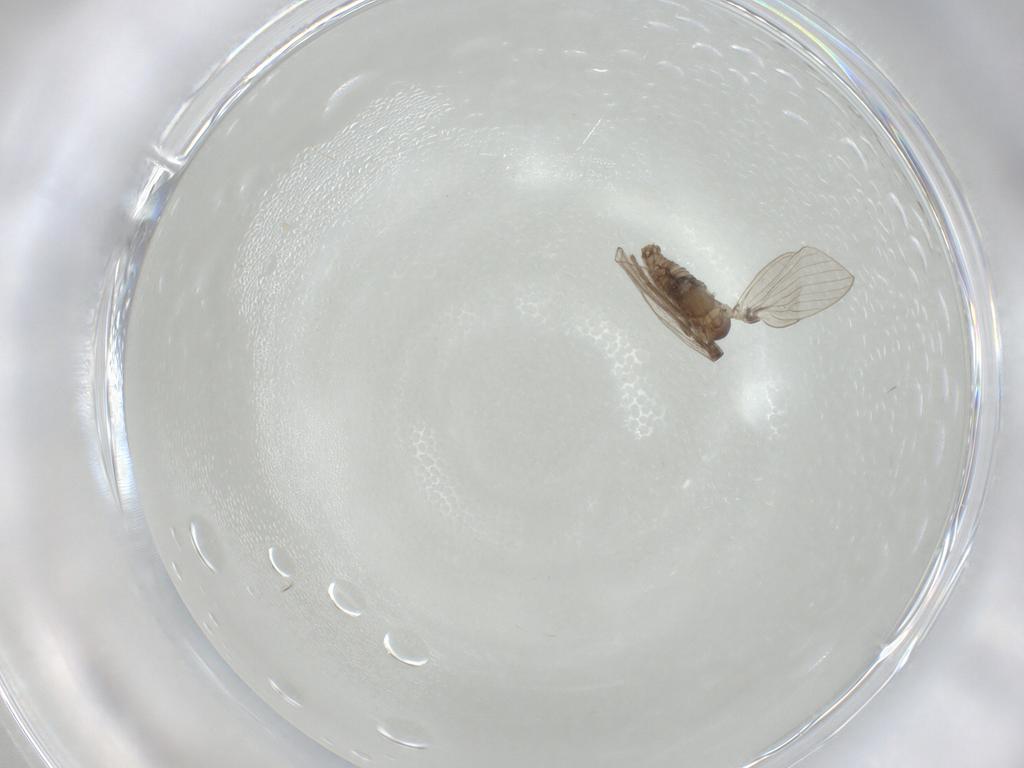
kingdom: Animalia
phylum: Arthropoda
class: Insecta
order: Diptera
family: Psychodidae
